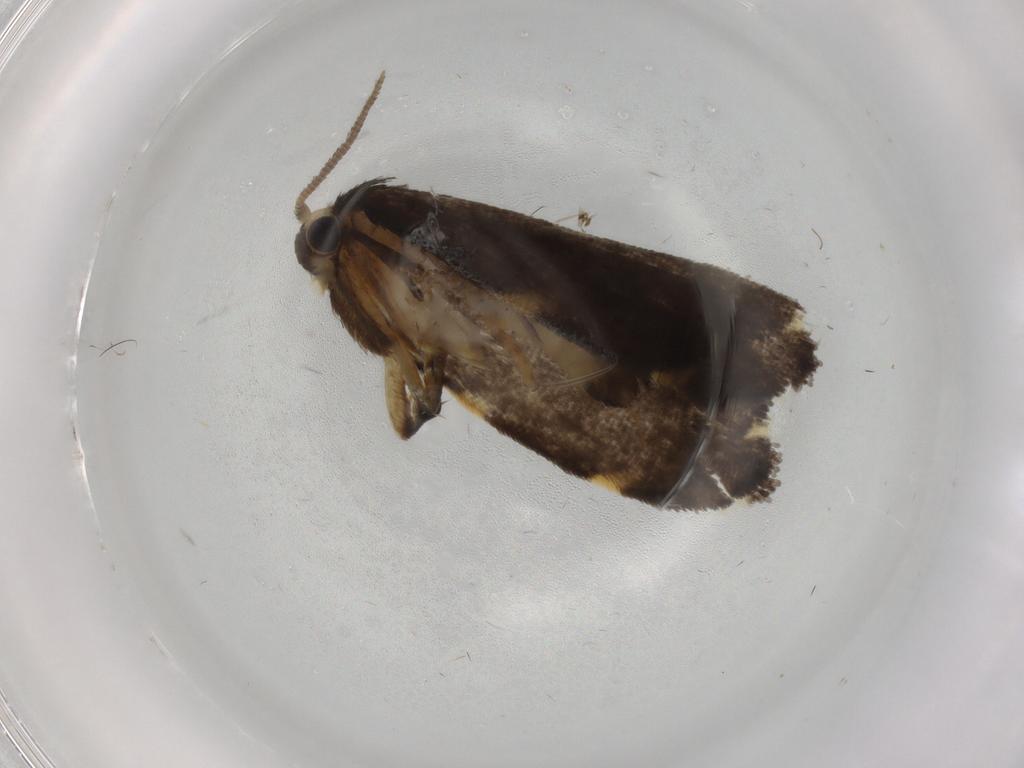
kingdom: Animalia
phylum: Arthropoda
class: Insecta
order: Lepidoptera
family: Psychidae
